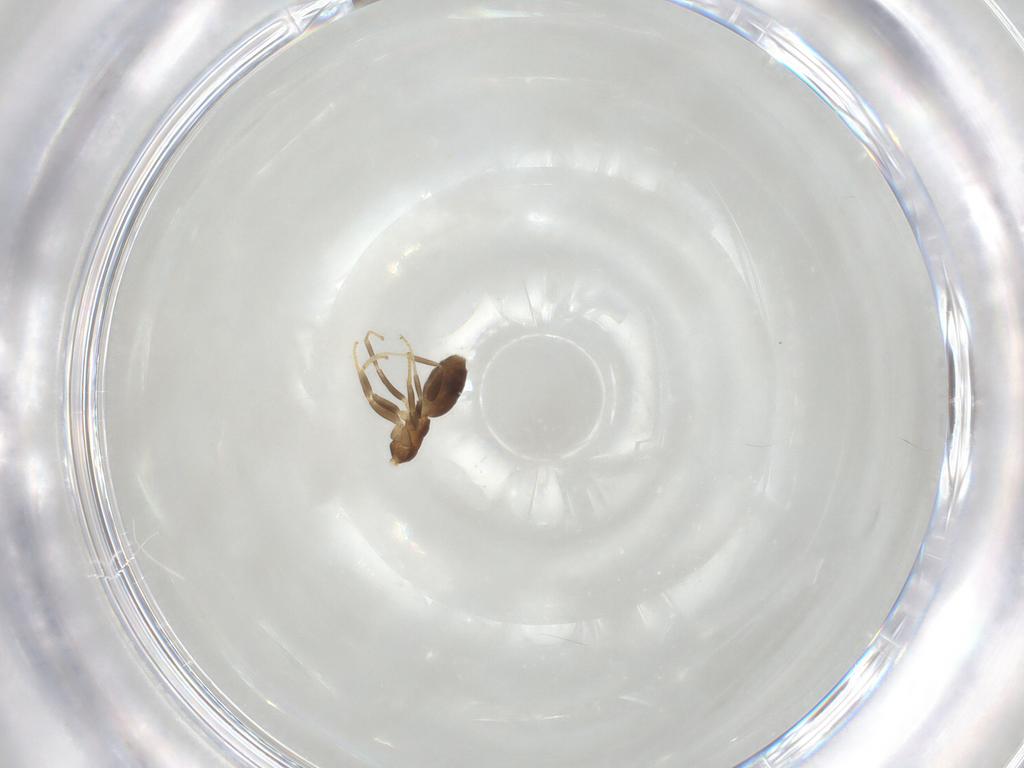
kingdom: Animalia
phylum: Arthropoda
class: Insecta
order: Hymenoptera
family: Formicidae
